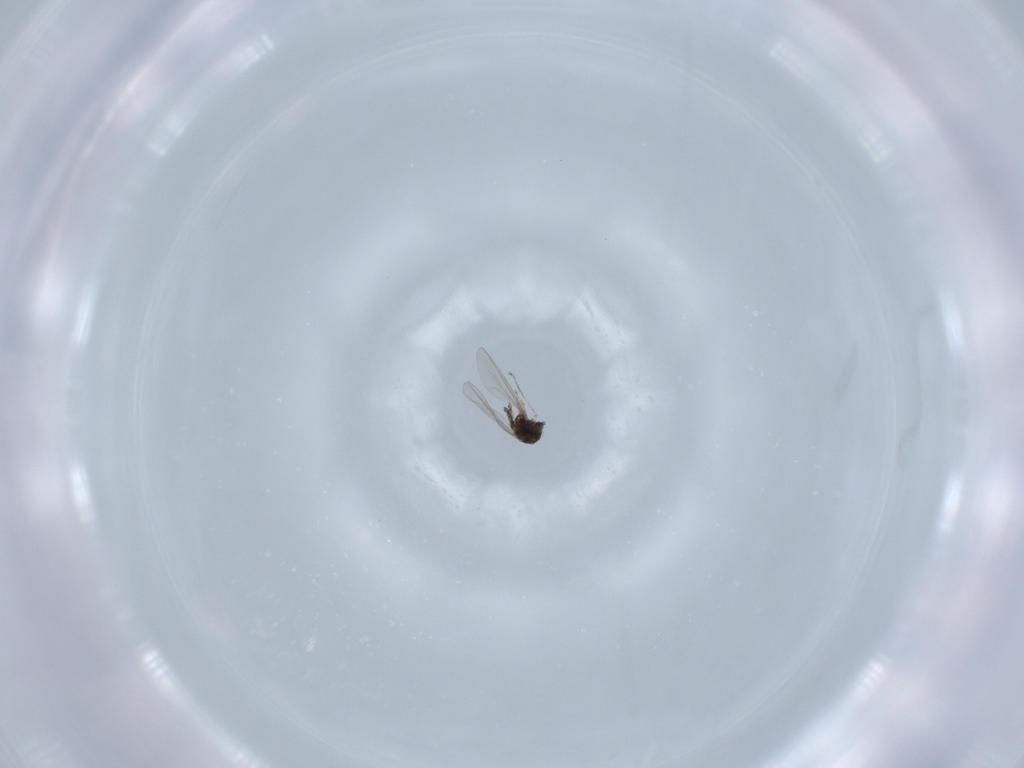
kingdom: Animalia
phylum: Arthropoda
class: Insecta
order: Diptera
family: Cecidomyiidae
